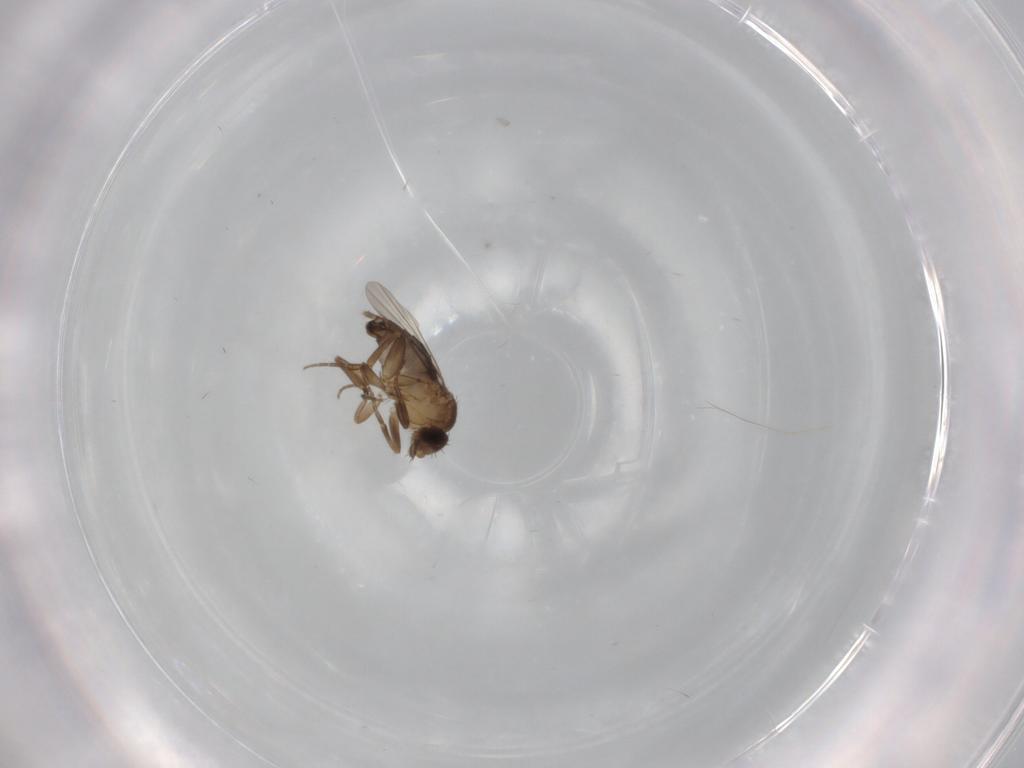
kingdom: Animalia
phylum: Arthropoda
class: Insecta
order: Diptera
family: Phoridae
